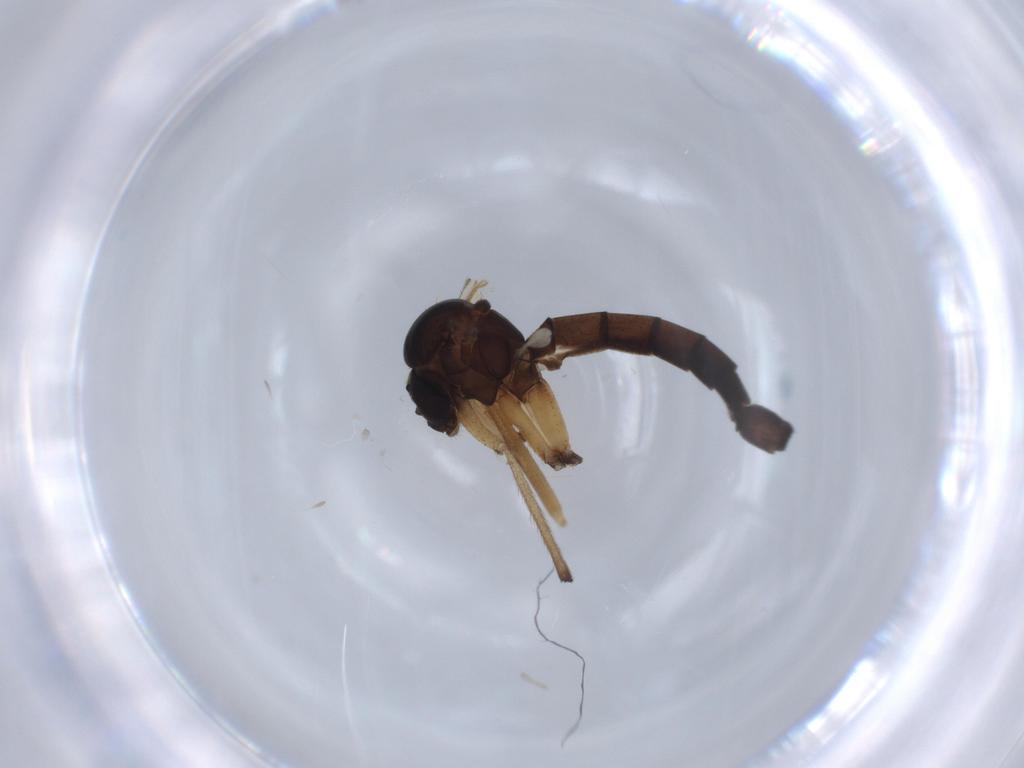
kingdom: Animalia
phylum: Arthropoda
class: Insecta
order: Diptera
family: Chironomidae
